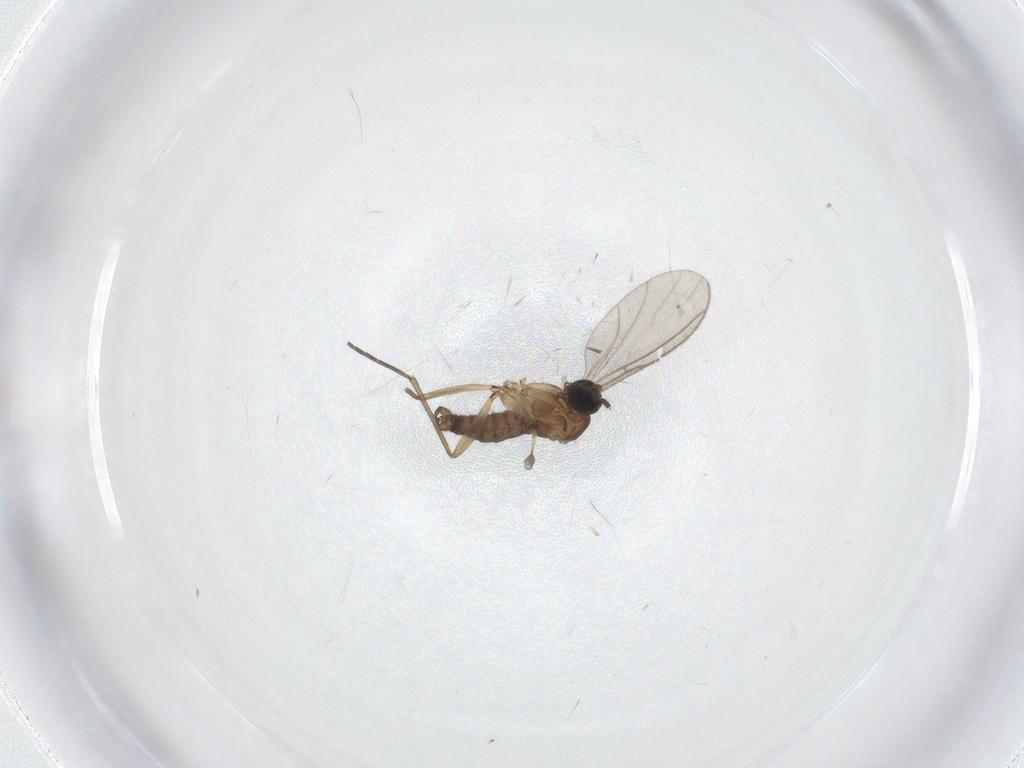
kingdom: Animalia
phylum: Arthropoda
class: Insecta
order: Diptera
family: Sciaridae
